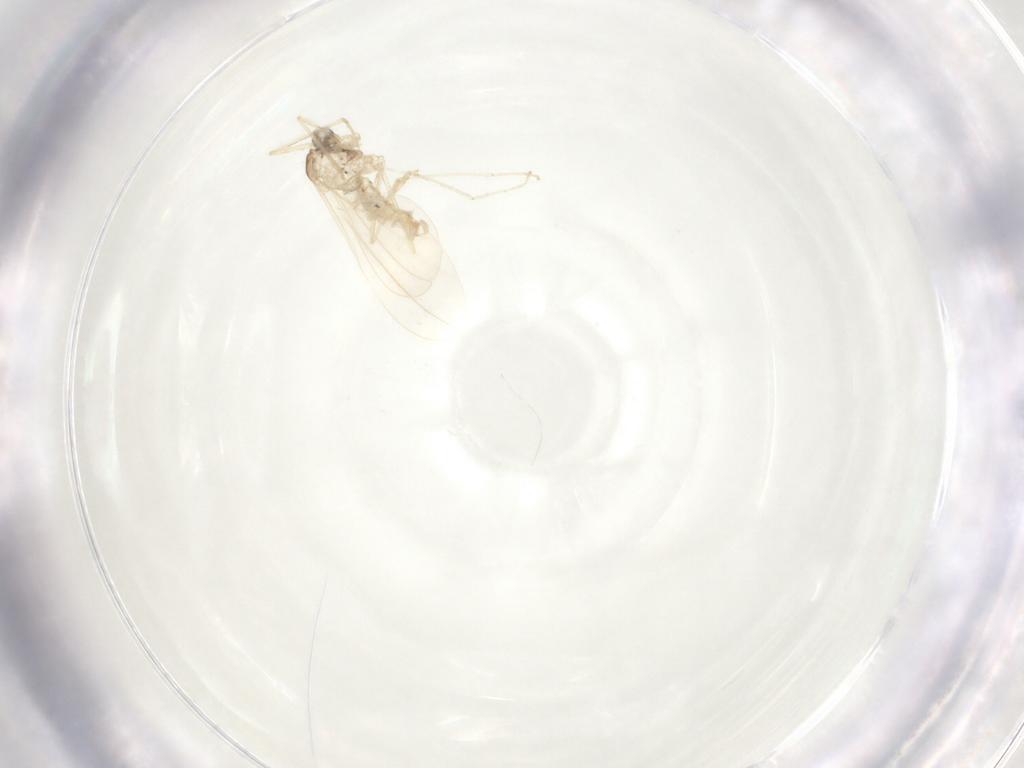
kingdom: Animalia
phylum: Arthropoda
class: Insecta
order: Diptera
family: Cecidomyiidae
